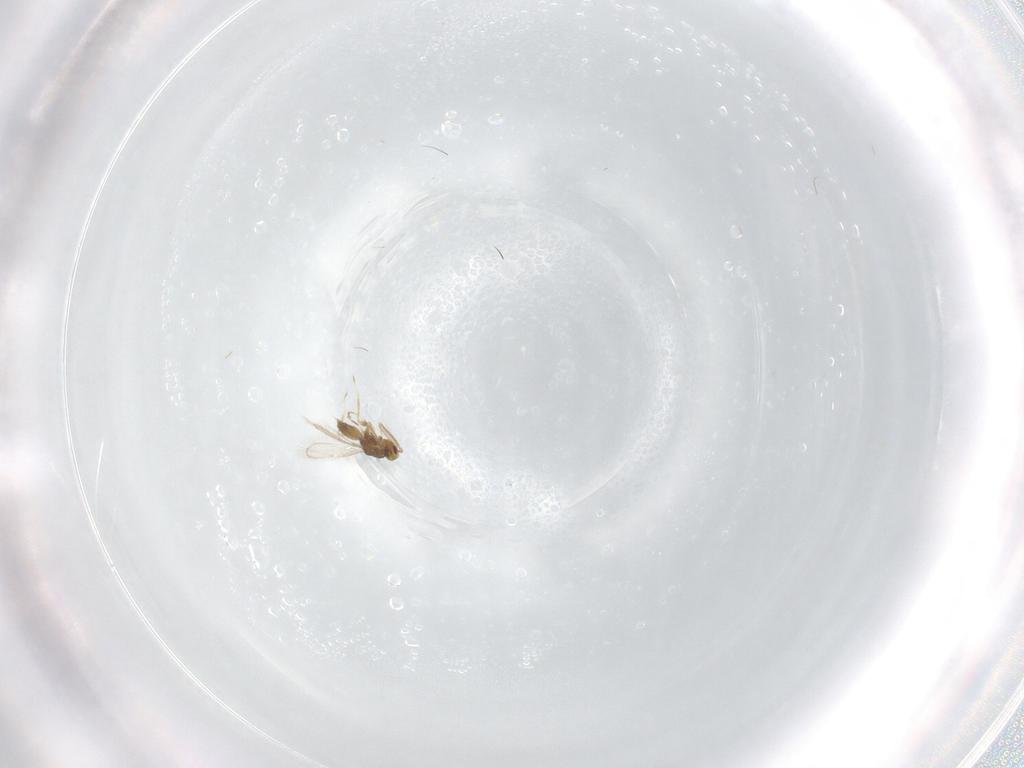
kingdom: Animalia
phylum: Arthropoda
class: Insecta
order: Hymenoptera
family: Eulophidae
